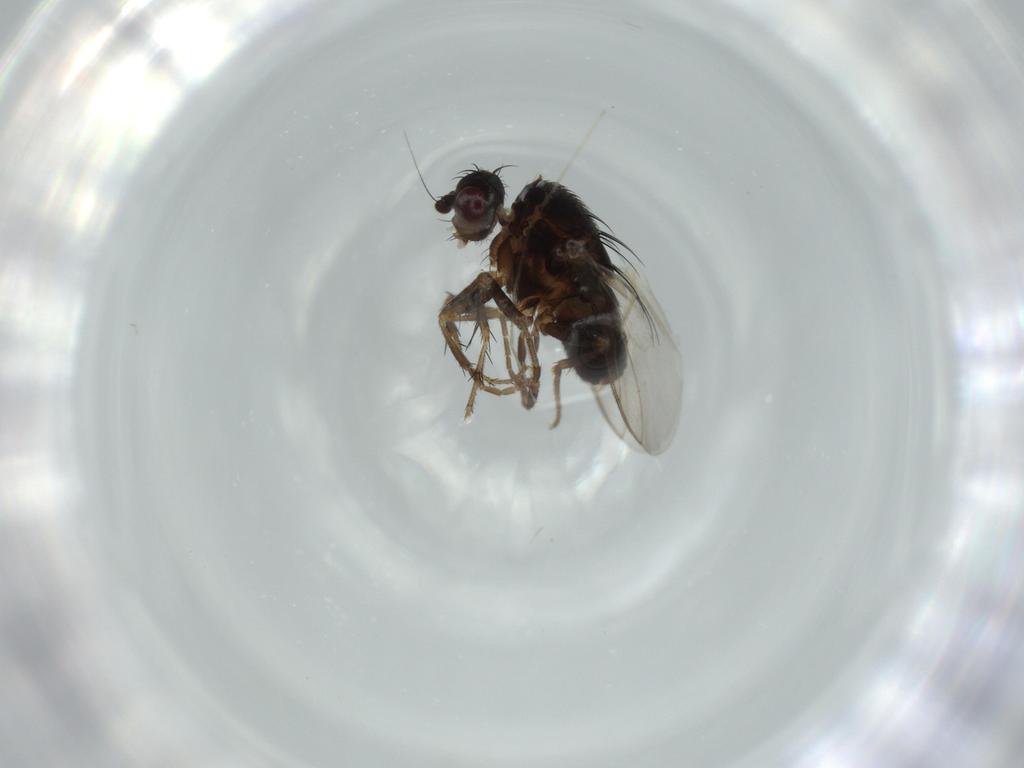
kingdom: Animalia
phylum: Arthropoda
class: Insecta
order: Diptera
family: Sphaeroceridae
